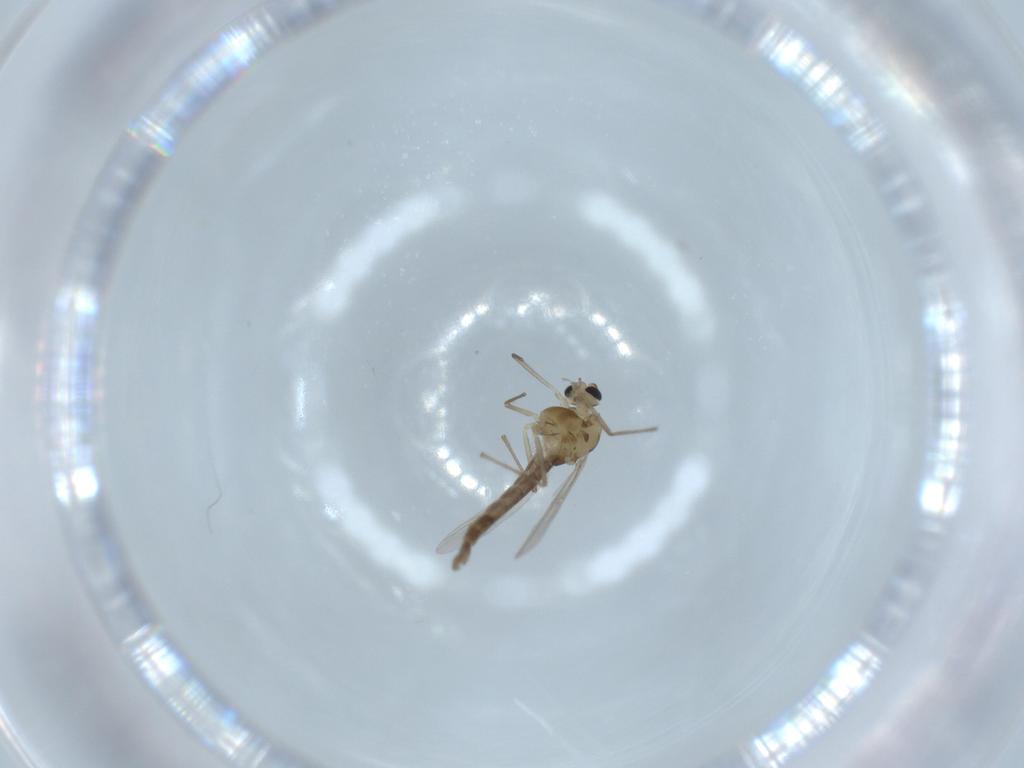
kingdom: Animalia
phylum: Arthropoda
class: Insecta
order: Diptera
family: Chironomidae
